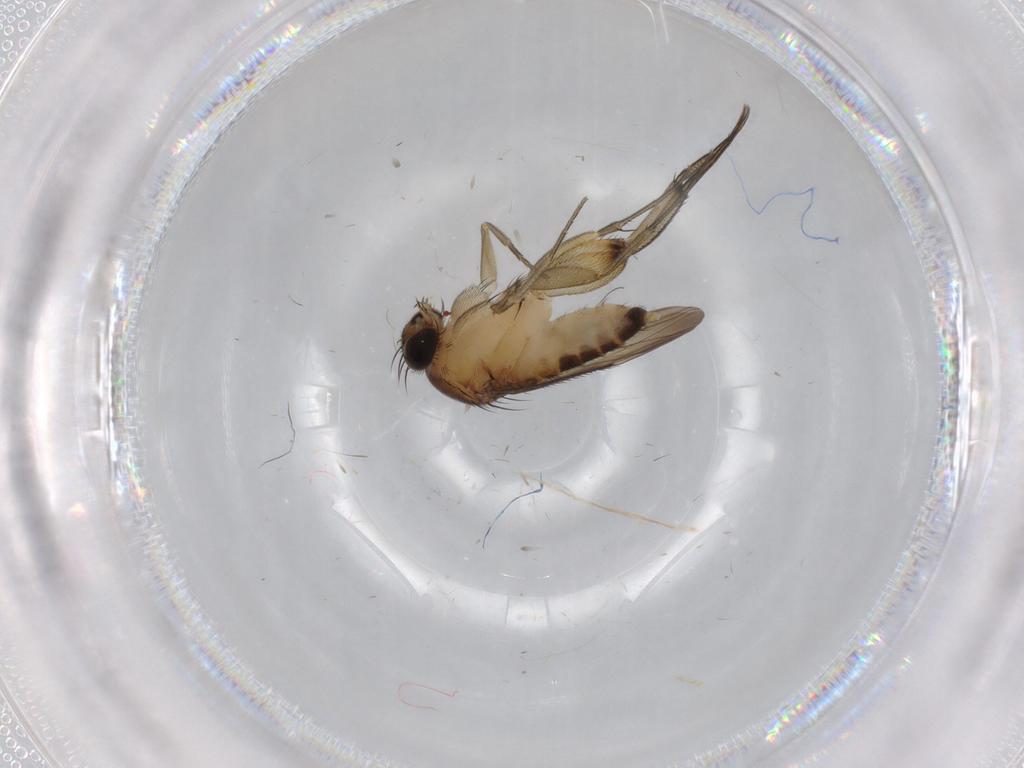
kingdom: Animalia
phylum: Arthropoda
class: Insecta
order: Diptera
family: Phoridae
